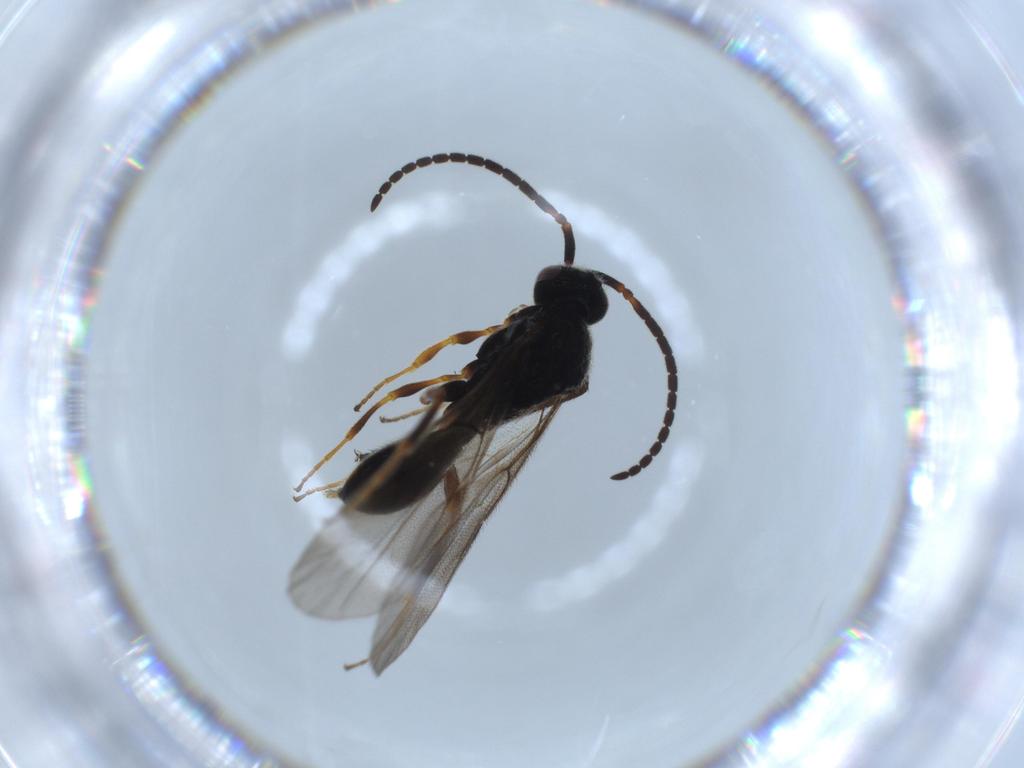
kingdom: Animalia
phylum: Arthropoda
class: Insecta
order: Hymenoptera
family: Diapriidae
